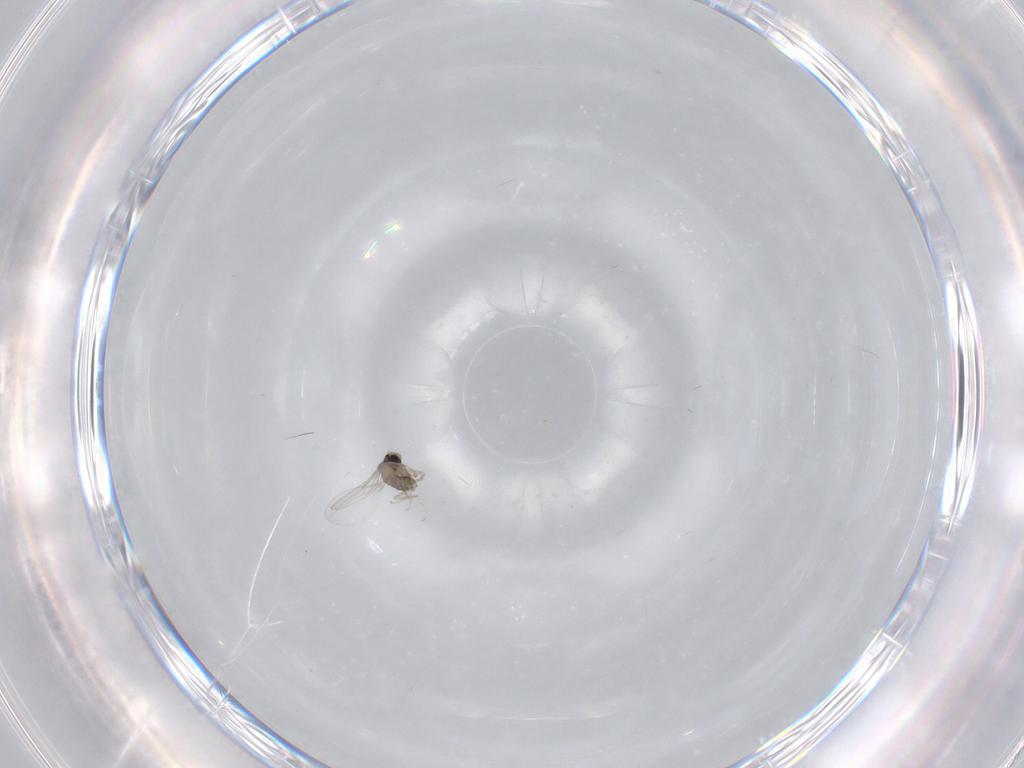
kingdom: Animalia
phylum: Arthropoda
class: Insecta
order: Diptera
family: Cecidomyiidae
